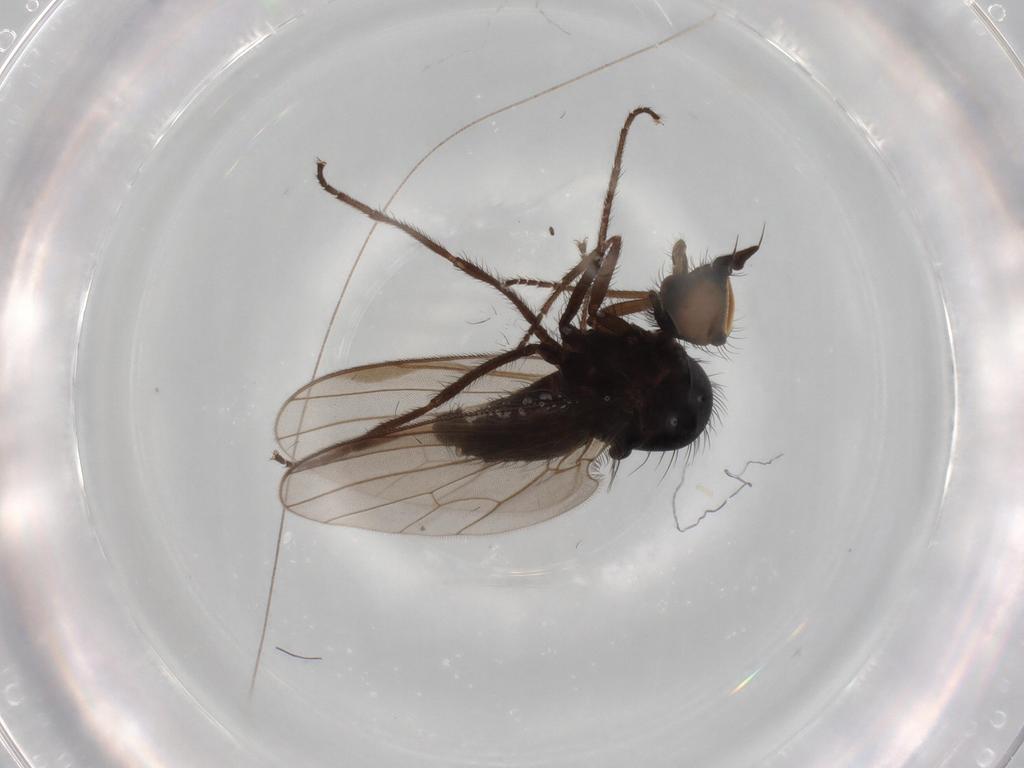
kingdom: Animalia
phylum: Arthropoda
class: Insecta
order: Diptera
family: Dolichopodidae
